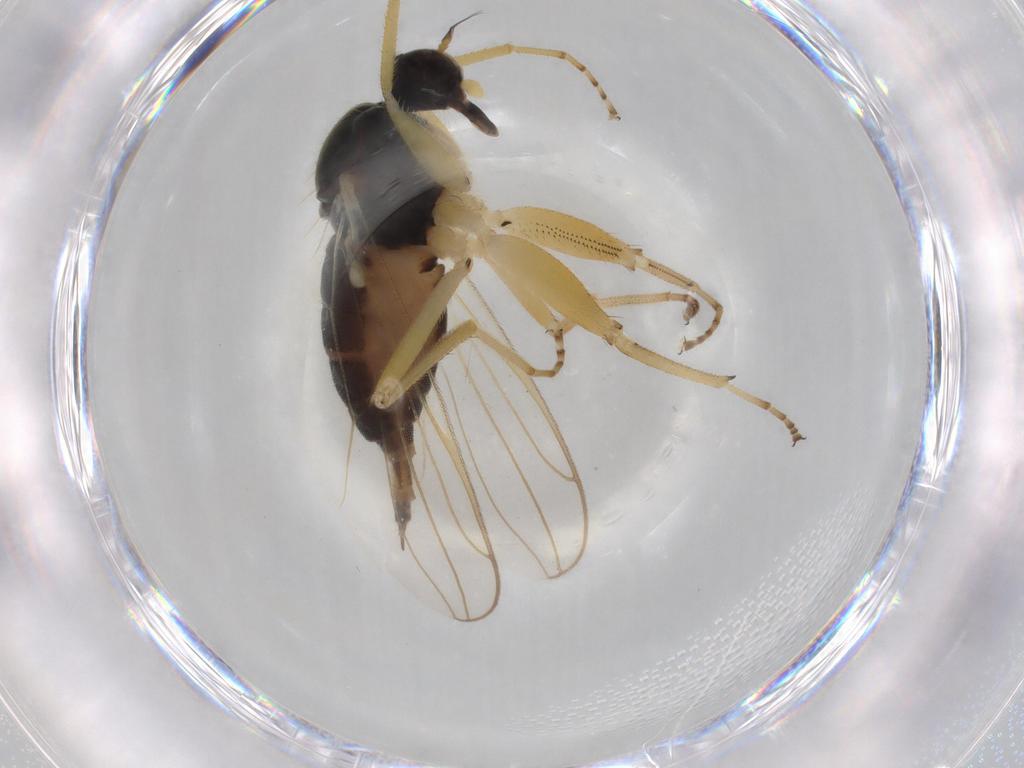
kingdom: Animalia
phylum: Arthropoda
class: Insecta
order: Diptera
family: Hybotidae
